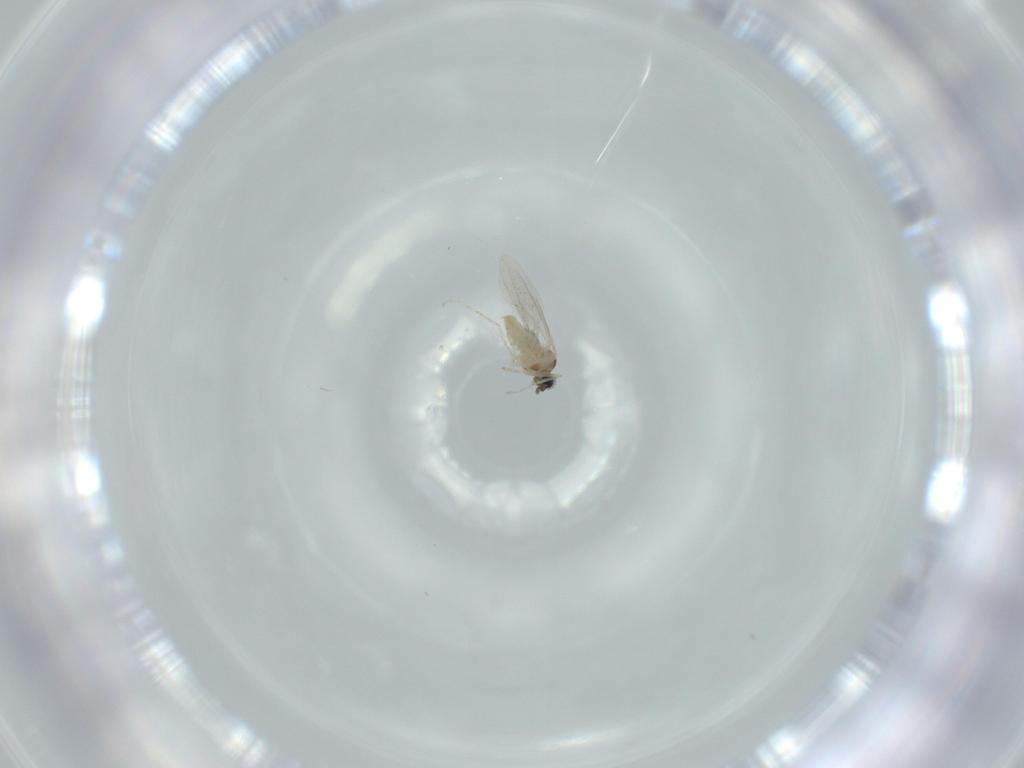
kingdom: Animalia
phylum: Arthropoda
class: Insecta
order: Diptera
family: Cecidomyiidae
